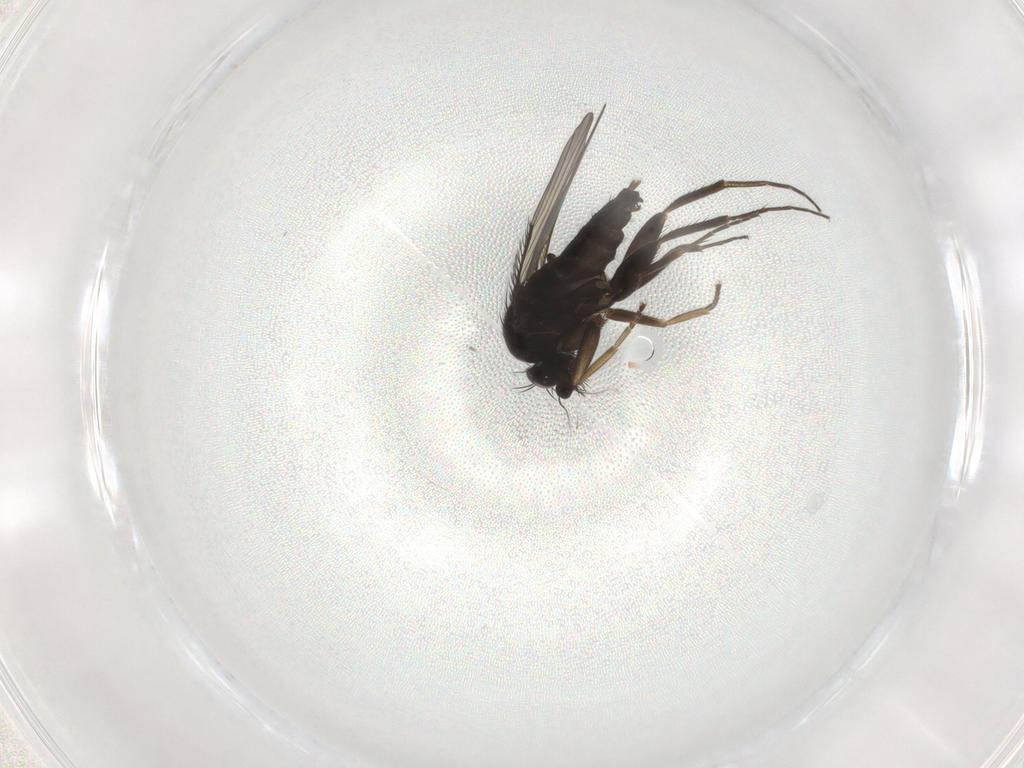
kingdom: Animalia
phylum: Arthropoda
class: Insecta
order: Diptera
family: Phoridae
